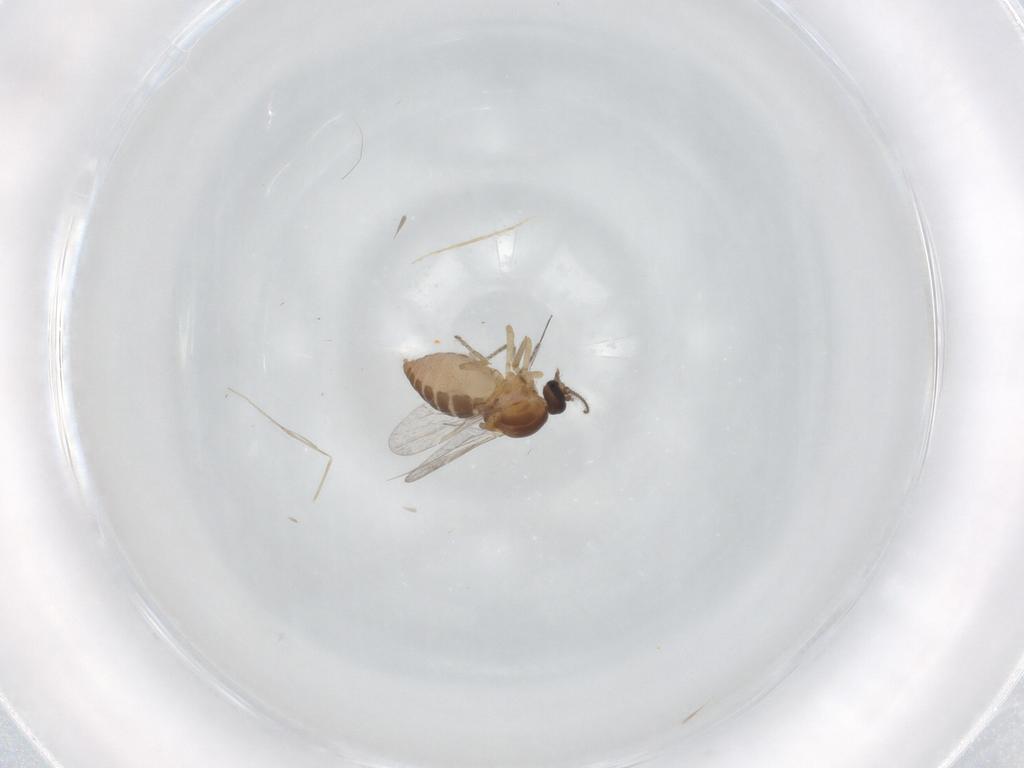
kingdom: Animalia
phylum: Arthropoda
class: Insecta
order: Diptera
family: Ceratopogonidae
